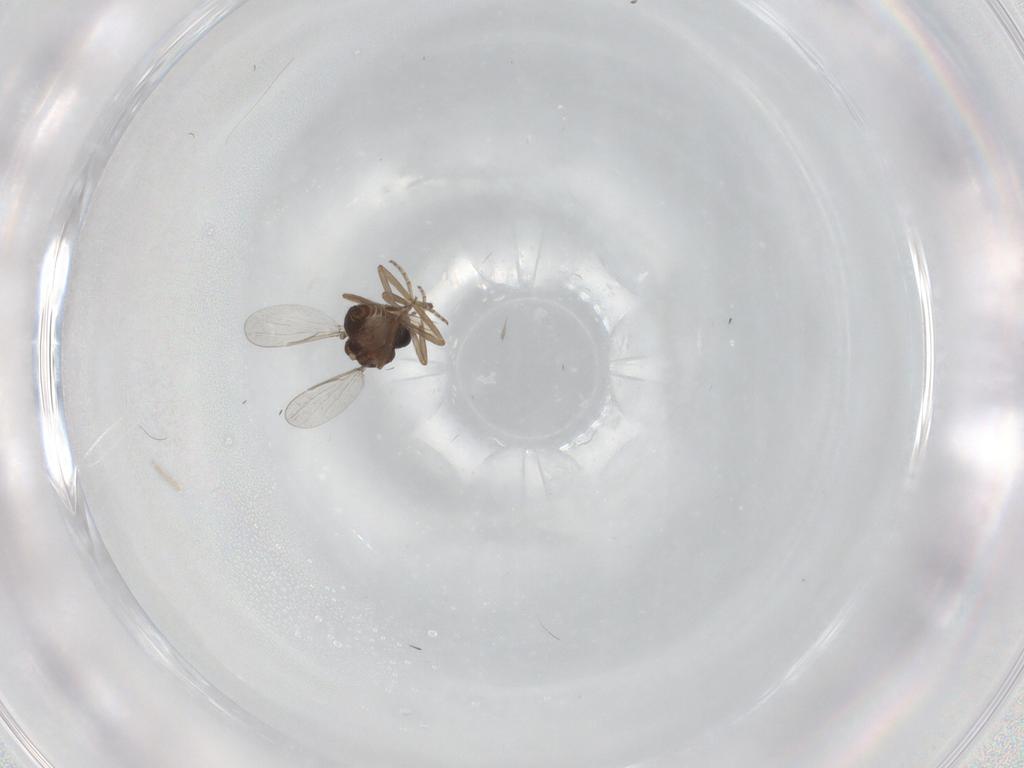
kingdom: Animalia
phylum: Arthropoda
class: Insecta
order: Diptera
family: Ceratopogonidae
